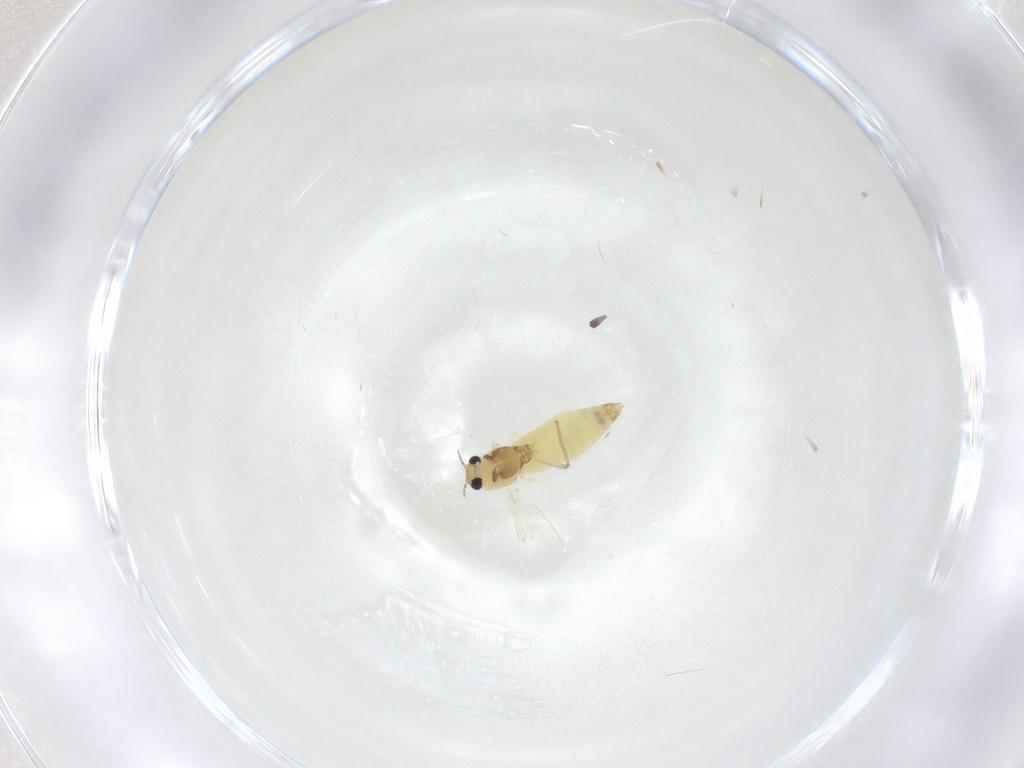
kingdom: Animalia
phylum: Arthropoda
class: Insecta
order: Diptera
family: Chironomidae
